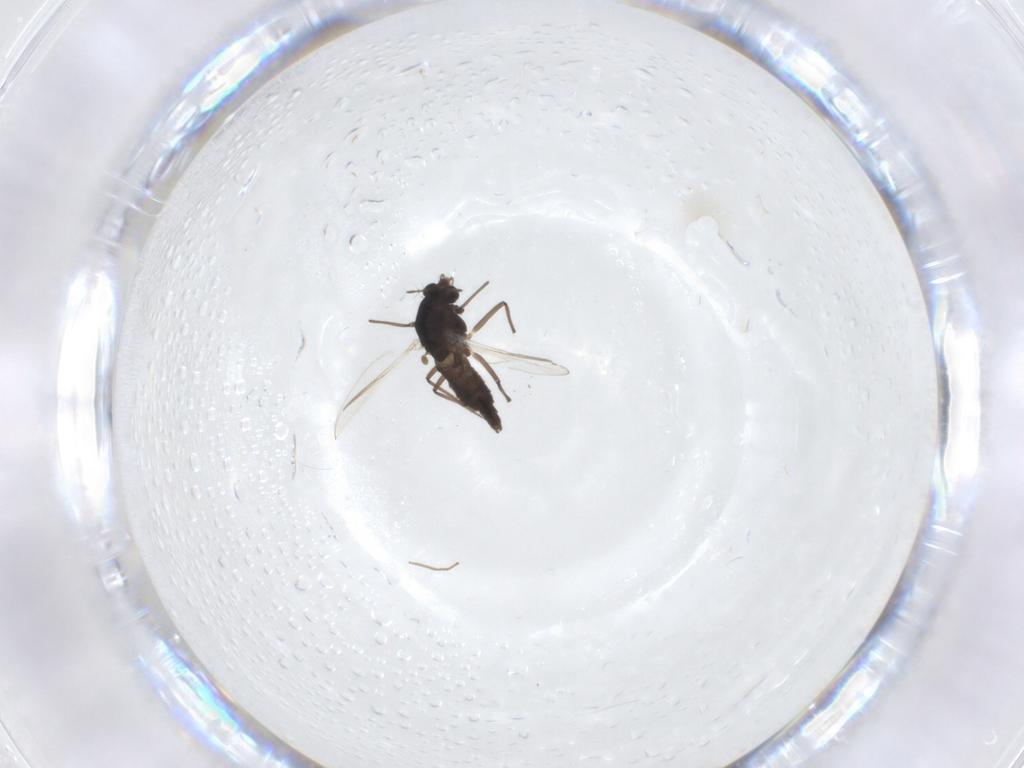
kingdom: Animalia
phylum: Arthropoda
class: Insecta
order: Diptera
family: Chironomidae
